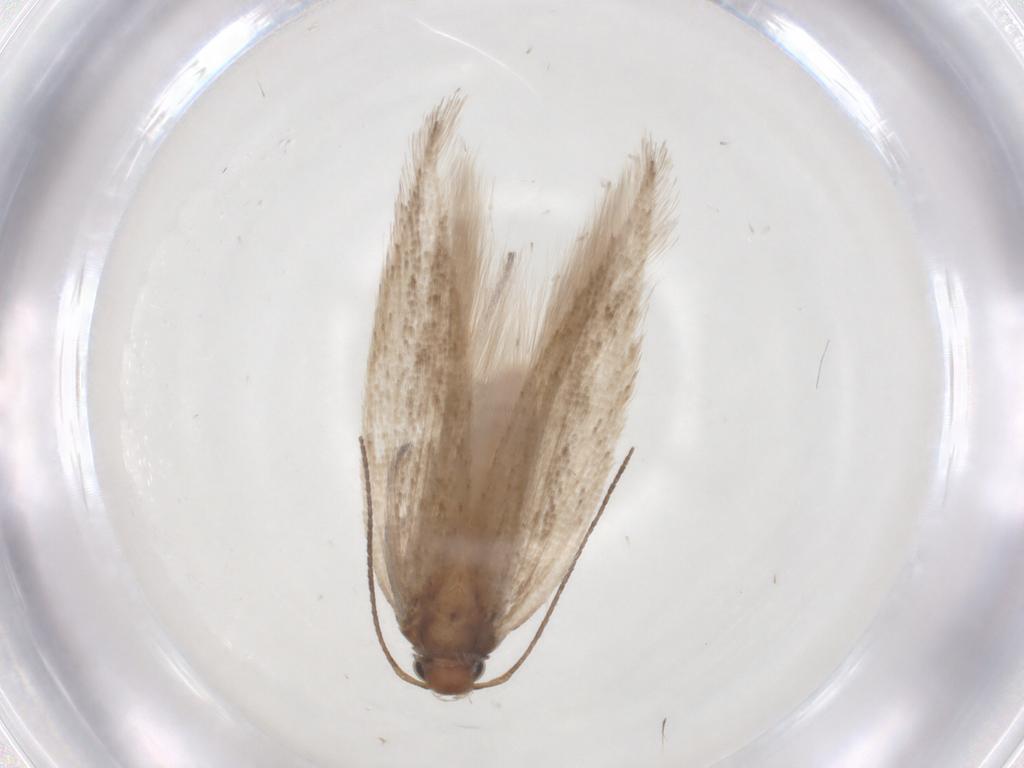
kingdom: Animalia
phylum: Arthropoda
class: Insecta
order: Lepidoptera
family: Gelechiidae
